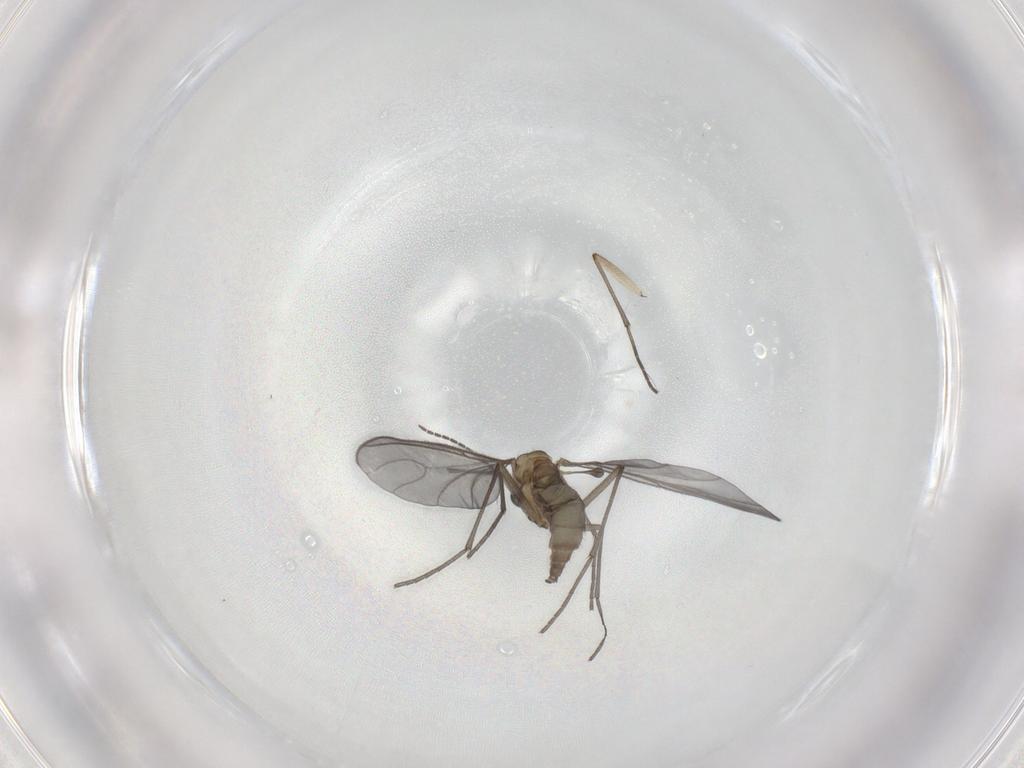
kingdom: Animalia
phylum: Arthropoda
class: Insecta
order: Diptera
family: Sciaridae
